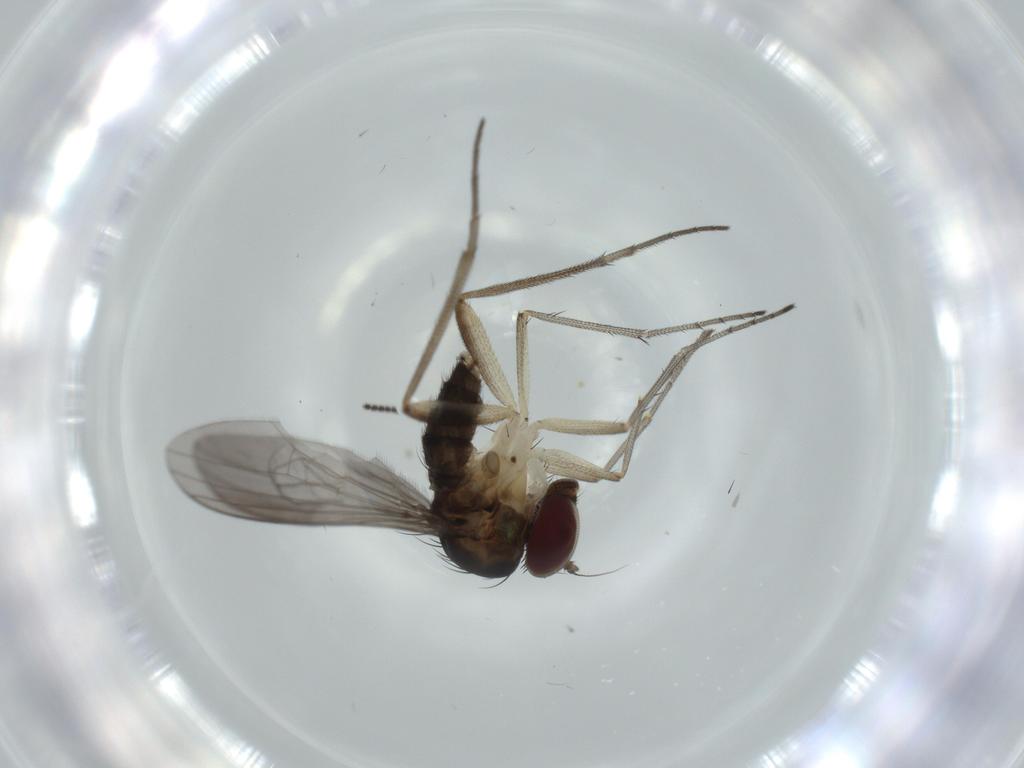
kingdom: Animalia
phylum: Arthropoda
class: Insecta
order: Diptera
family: Dolichopodidae
